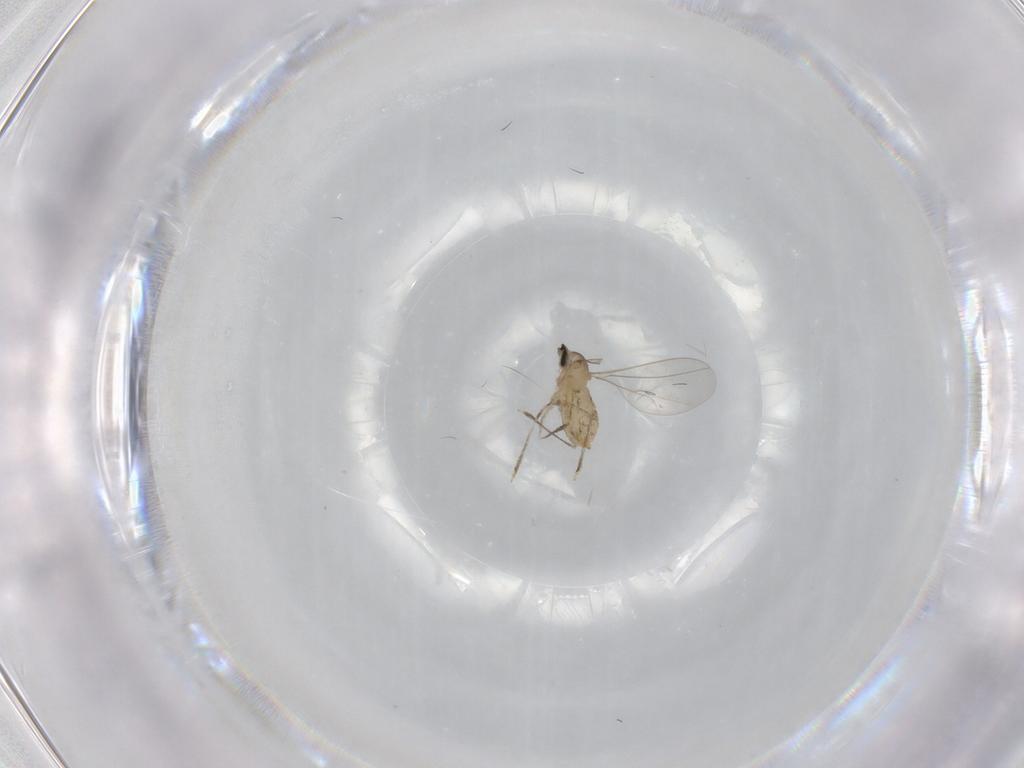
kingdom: Animalia
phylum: Arthropoda
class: Insecta
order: Diptera
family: Cecidomyiidae
